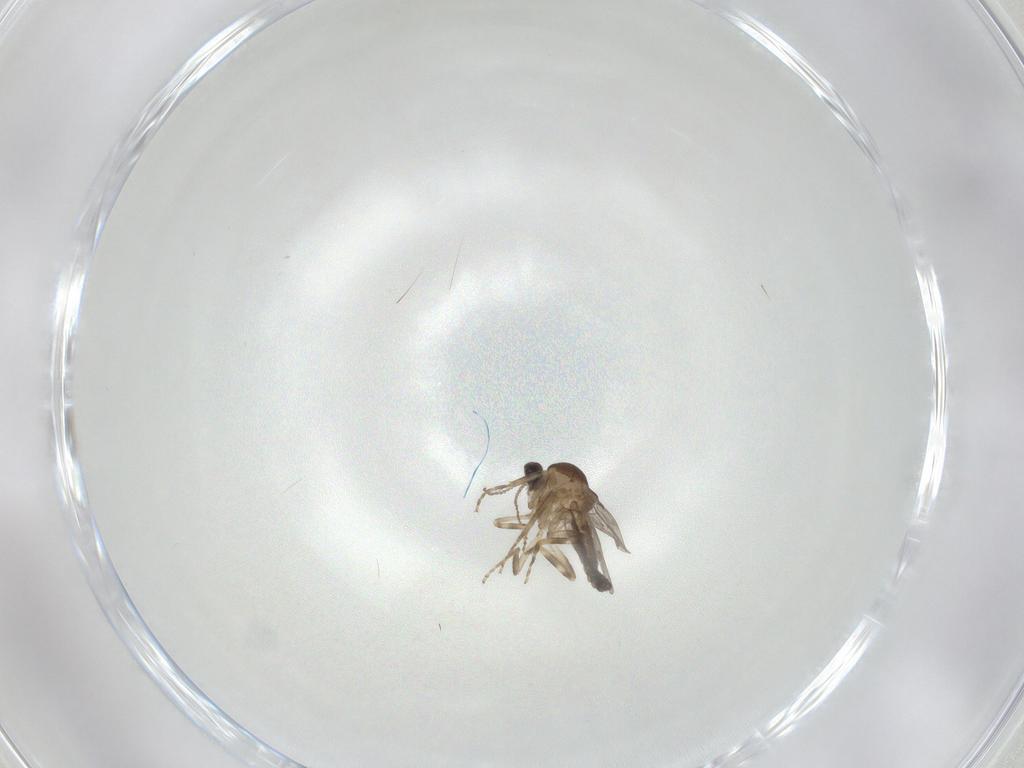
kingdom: Animalia
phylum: Arthropoda
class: Insecta
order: Diptera
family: Ceratopogonidae
